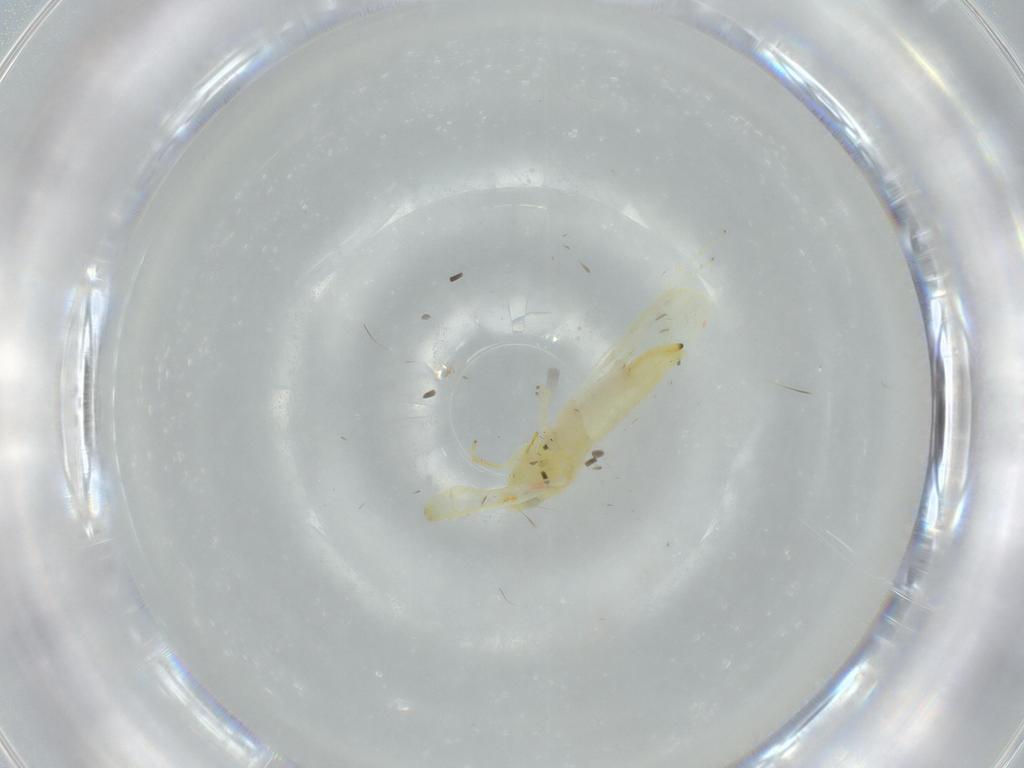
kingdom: Animalia
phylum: Arthropoda
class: Insecta
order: Hemiptera
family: Cicadellidae
